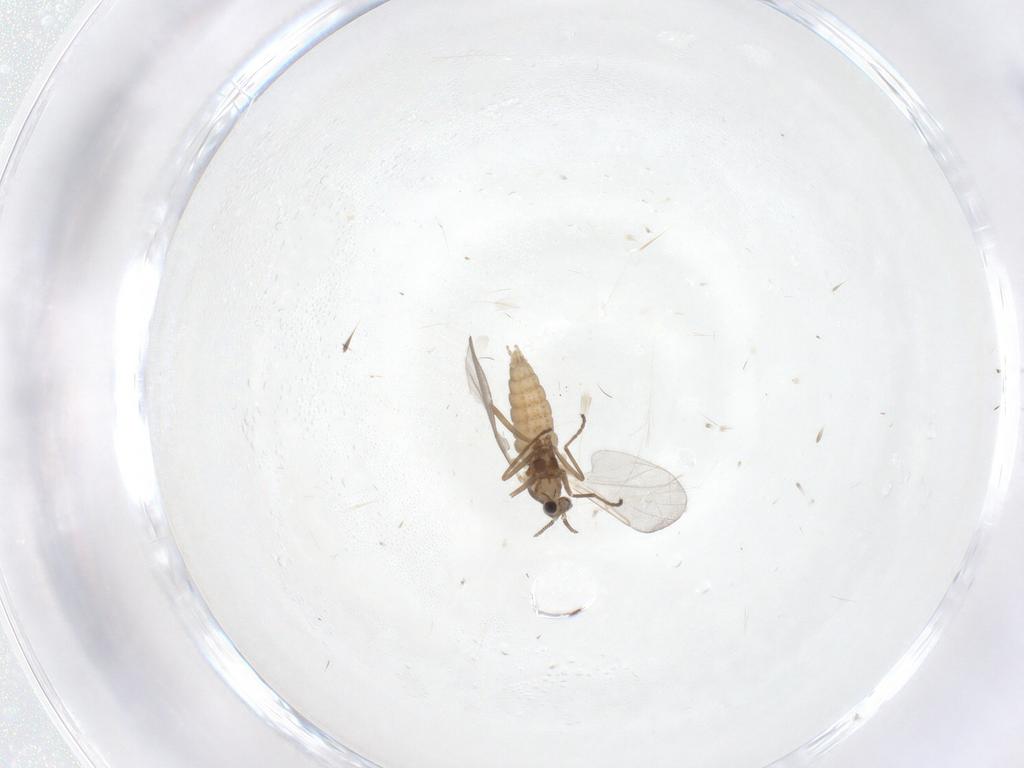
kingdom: Animalia
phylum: Arthropoda
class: Insecta
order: Diptera
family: Cecidomyiidae
